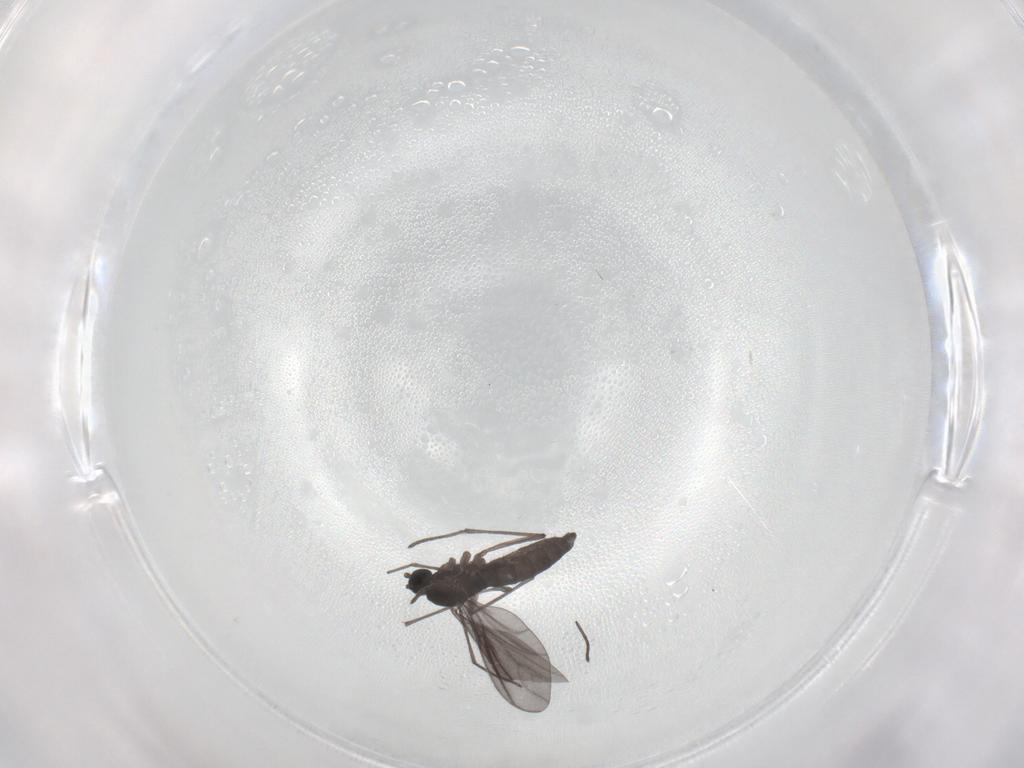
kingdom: Animalia
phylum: Arthropoda
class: Insecta
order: Diptera
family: Sciaridae
